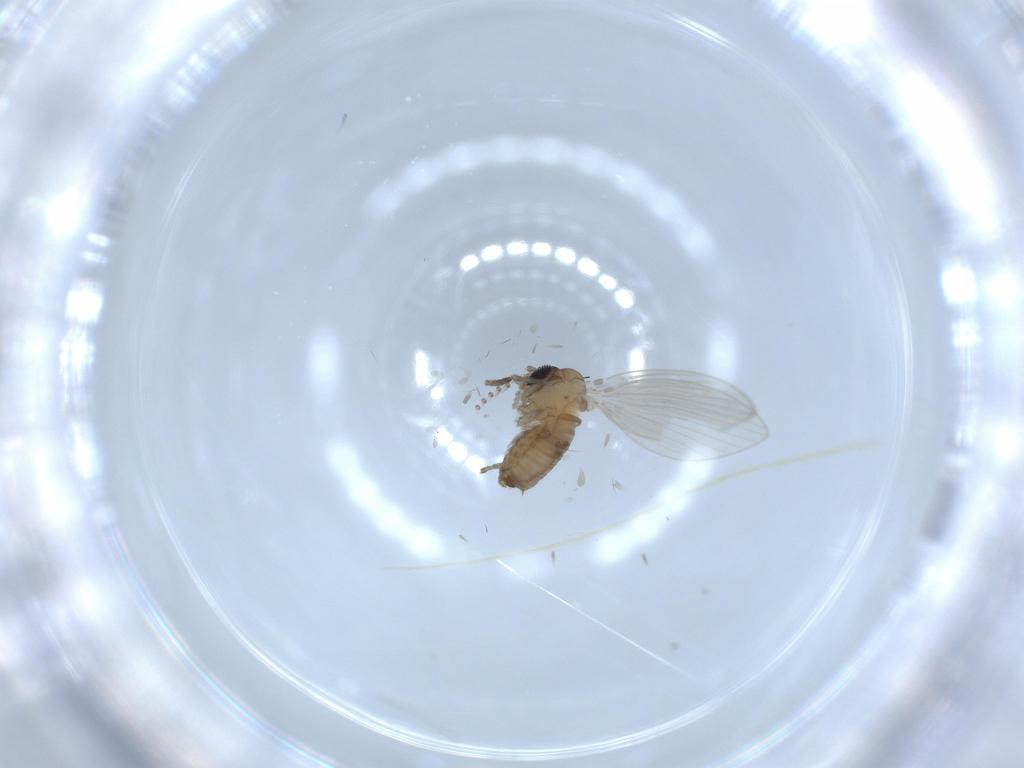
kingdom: Animalia
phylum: Arthropoda
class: Insecta
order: Diptera
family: Psychodidae
